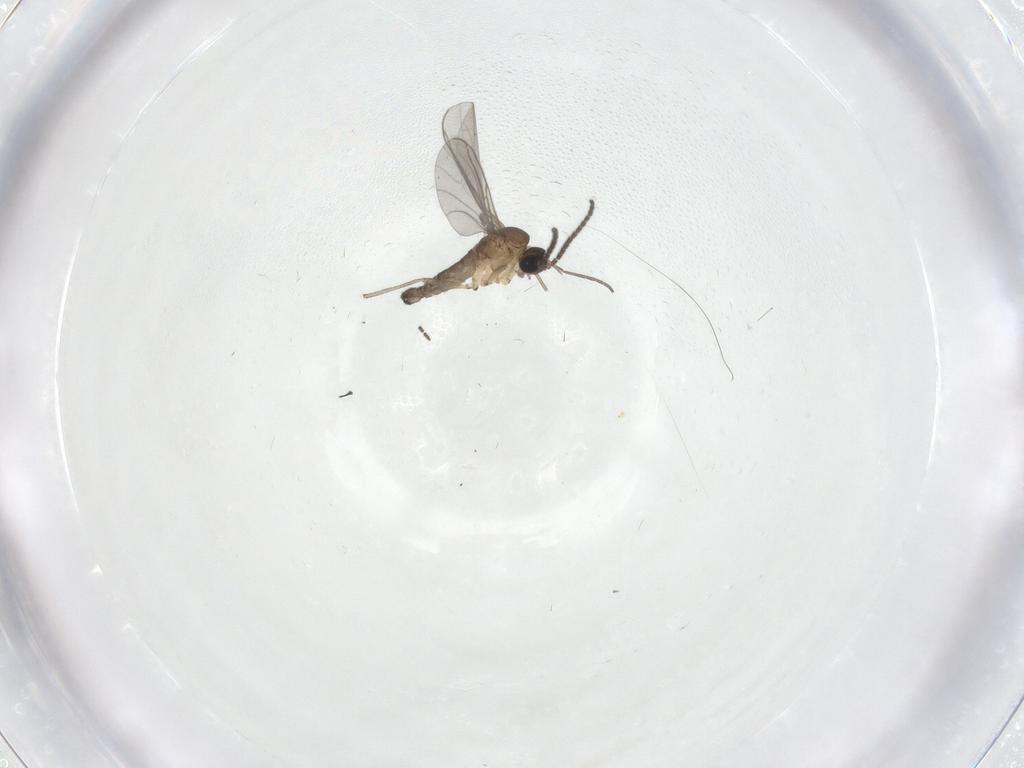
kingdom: Animalia
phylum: Arthropoda
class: Insecta
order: Diptera
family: Sciaridae
